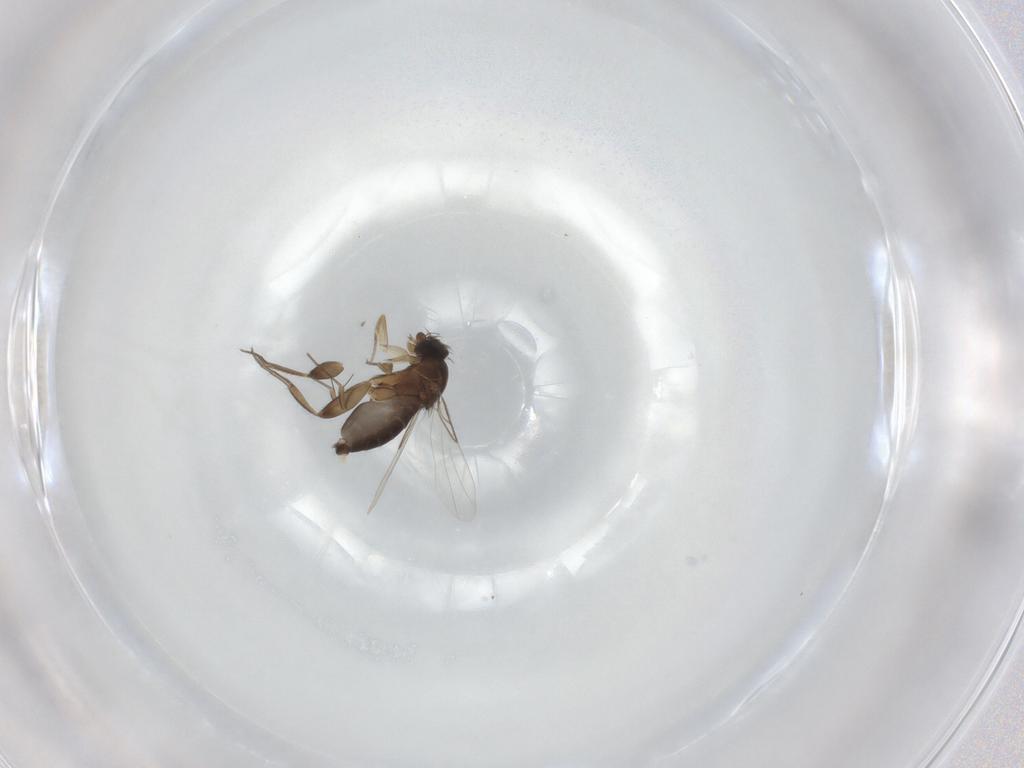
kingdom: Animalia
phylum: Arthropoda
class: Insecta
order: Diptera
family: Phoridae
